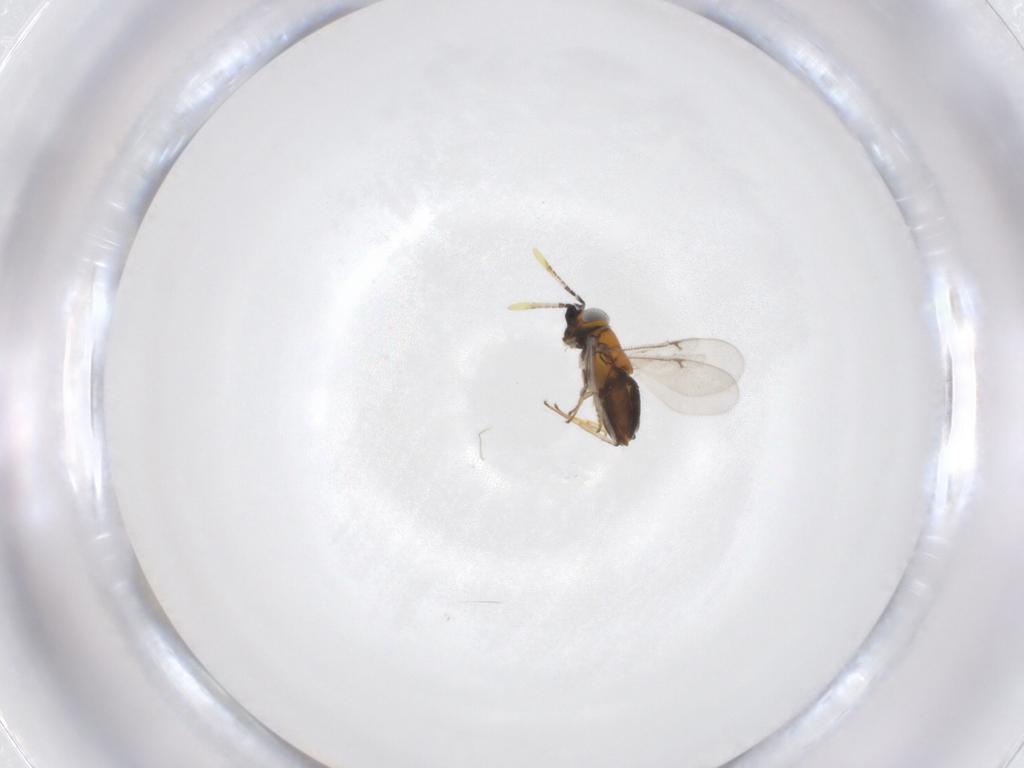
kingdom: Animalia
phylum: Arthropoda
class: Insecta
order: Hymenoptera
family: Encyrtidae
